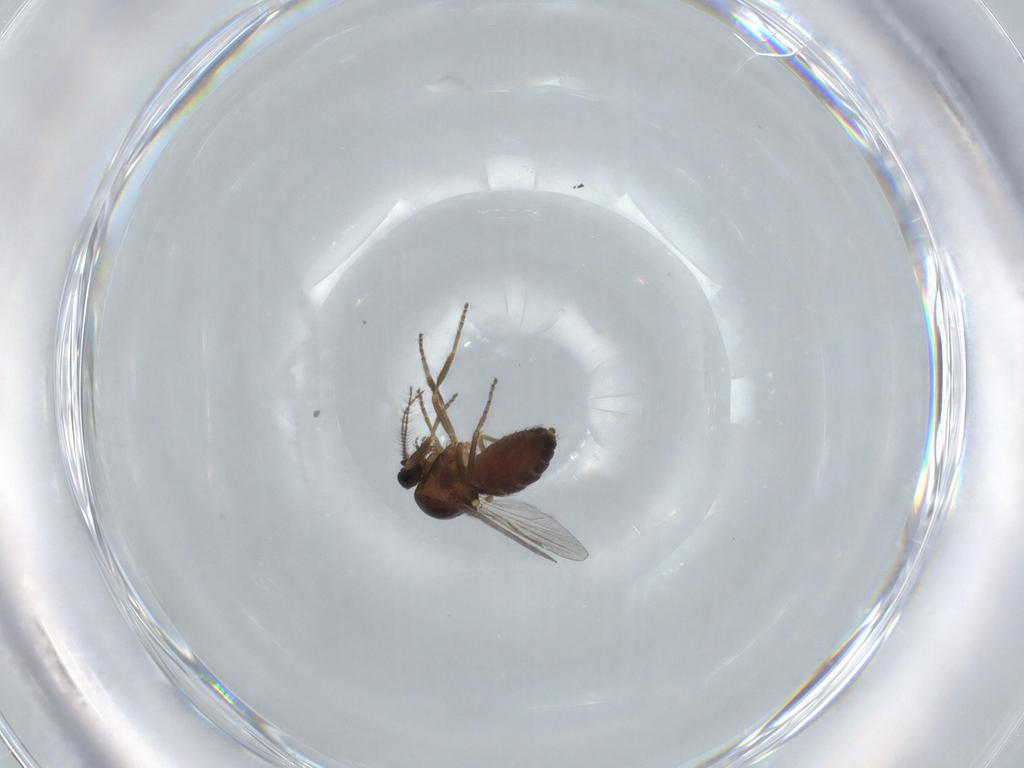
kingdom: Animalia
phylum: Arthropoda
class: Insecta
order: Diptera
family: Ceratopogonidae
